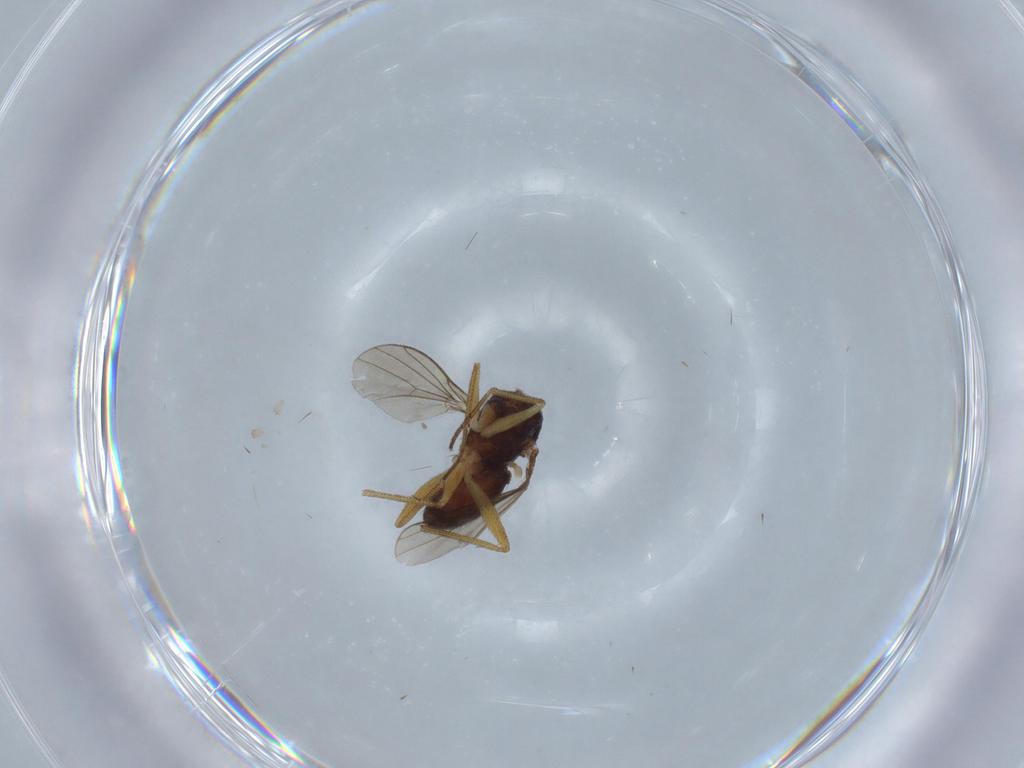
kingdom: Animalia
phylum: Arthropoda
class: Insecta
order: Diptera
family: Dolichopodidae
